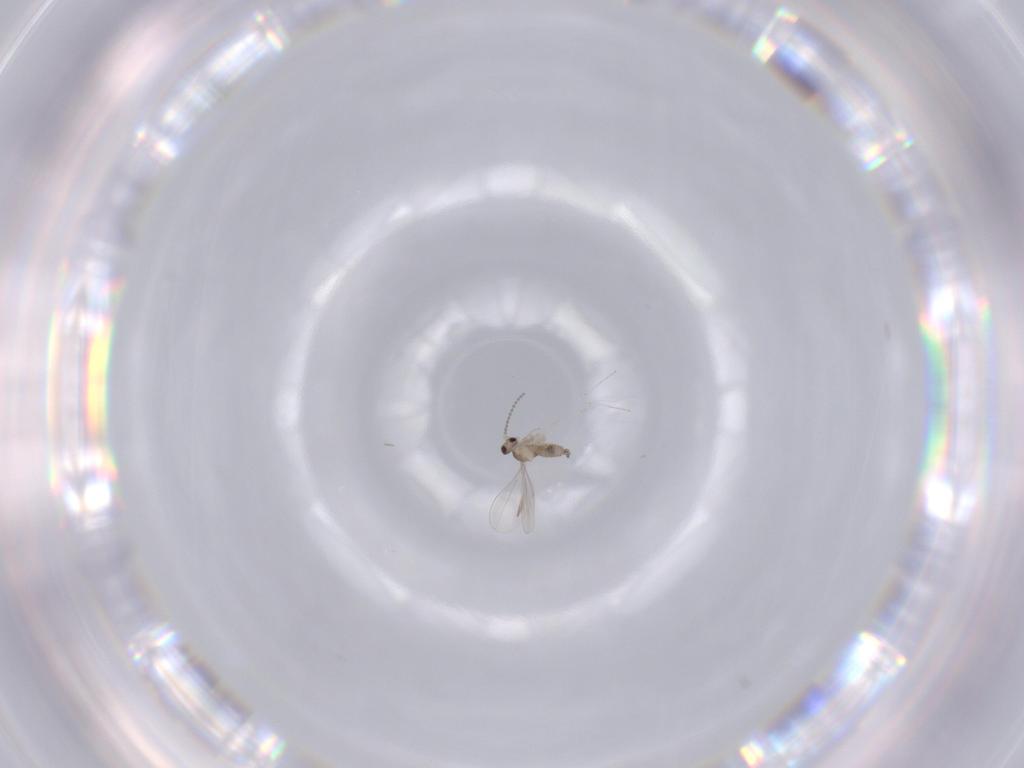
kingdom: Animalia
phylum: Arthropoda
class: Insecta
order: Diptera
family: Cecidomyiidae
